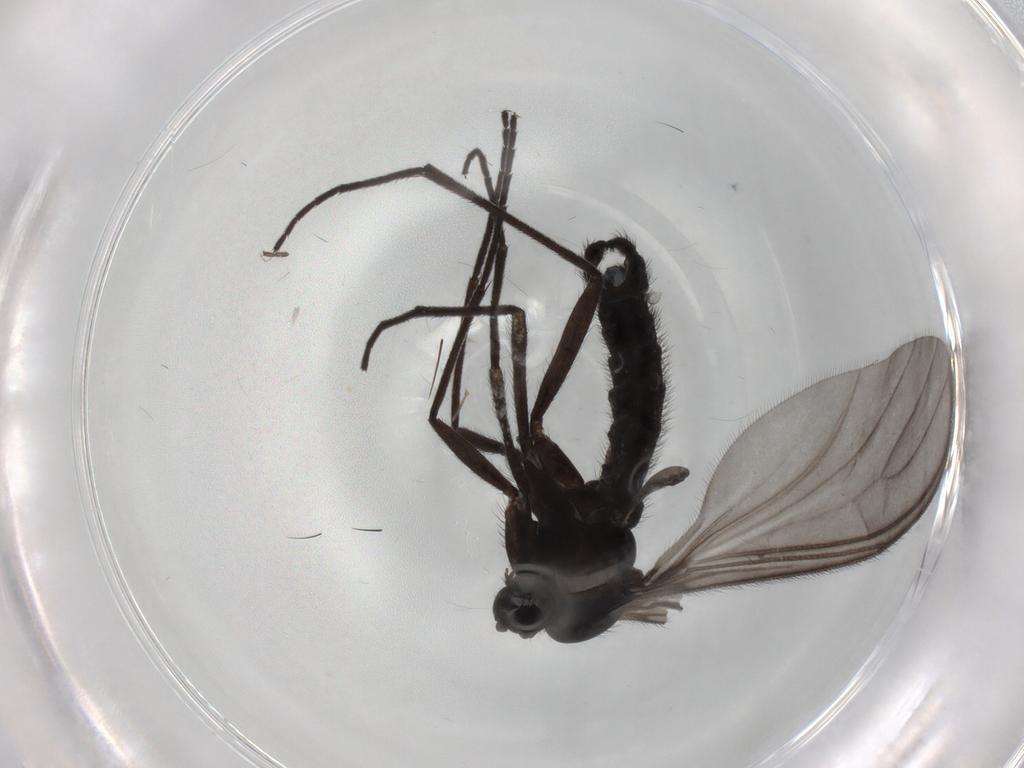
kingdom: Animalia
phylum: Arthropoda
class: Insecta
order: Diptera
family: Sciaridae
